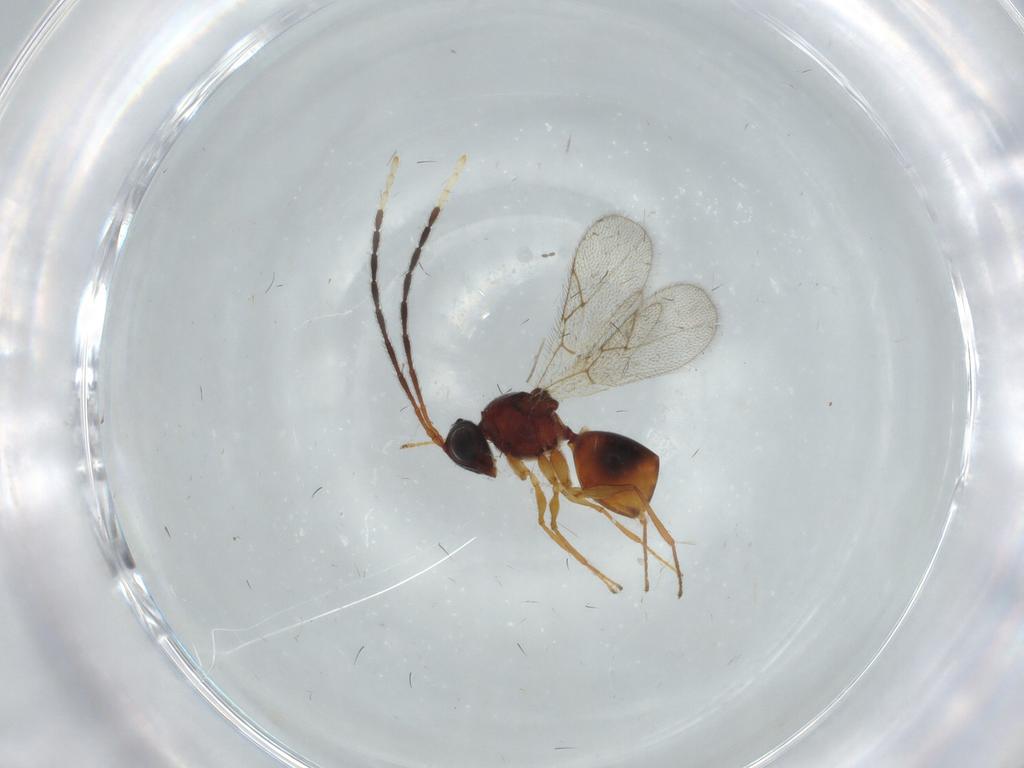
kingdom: Animalia
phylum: Arthropoda
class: Insecta
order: Hymenoptera
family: Figitidae
